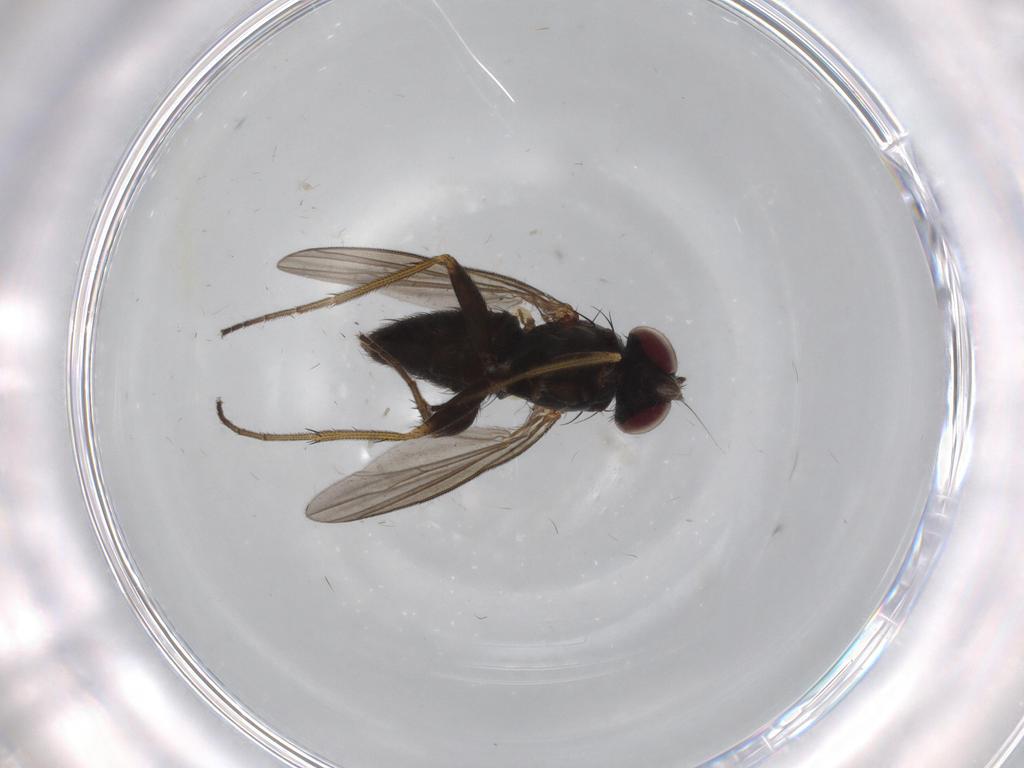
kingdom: Animalia
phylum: Arthropoda
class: Insecta
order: Diptera
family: Dolichopodidae
